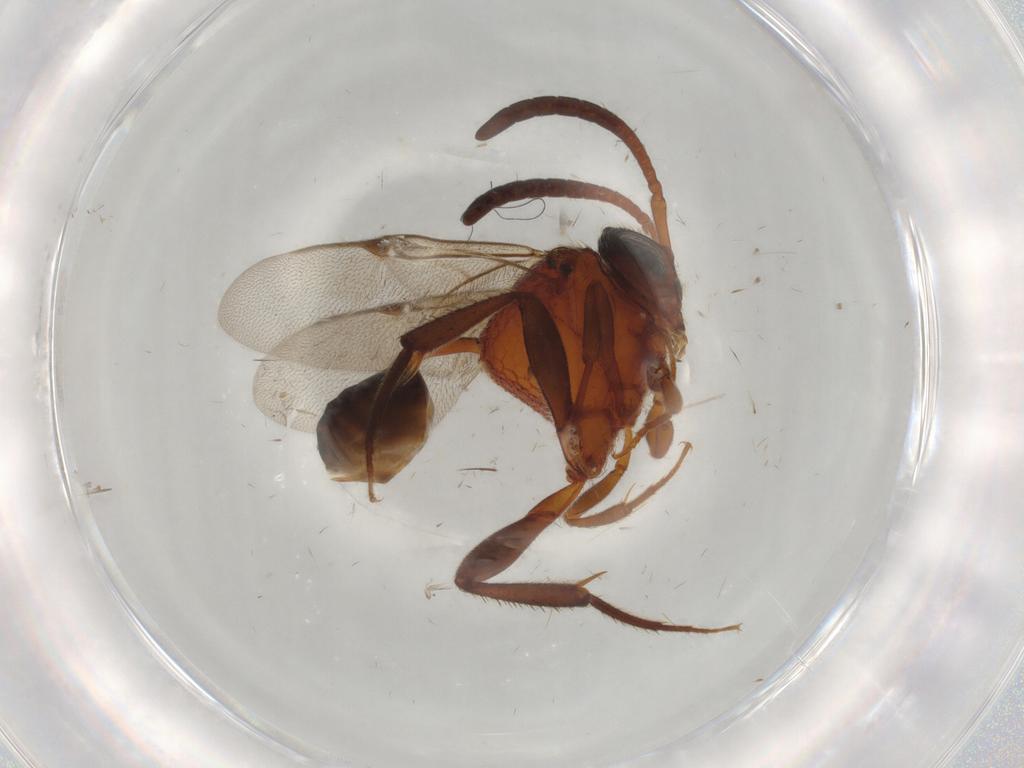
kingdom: Animalia
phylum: Arthropoda
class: Insecta
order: Hymenoptera
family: Evaniidae
